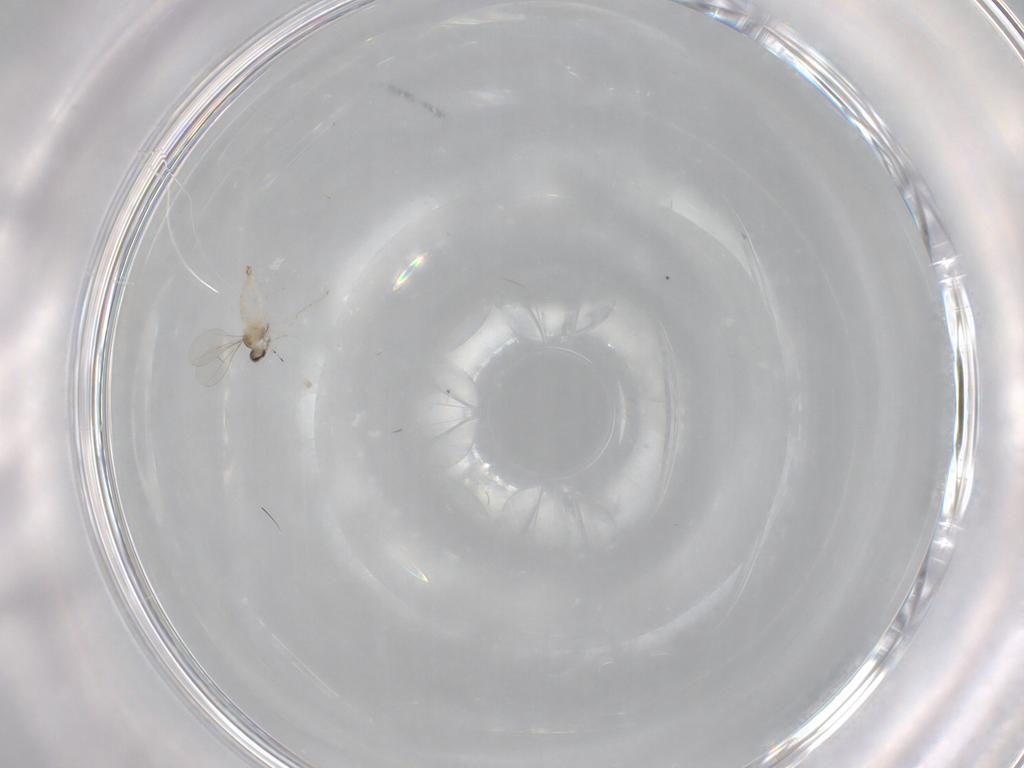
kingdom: Animalia
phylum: Arthropoda
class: Insecta
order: Diptera
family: Cecidomyiidae
